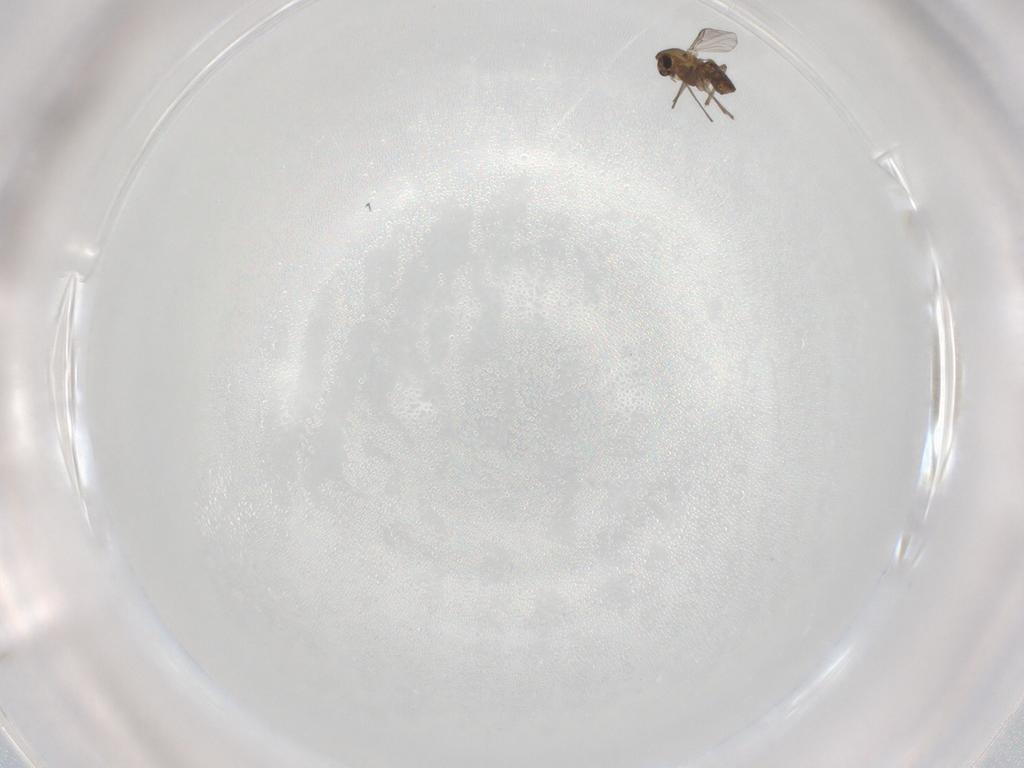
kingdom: Animalia
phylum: Arthropoda
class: Insecta
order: Diptera
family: Chironomidae
